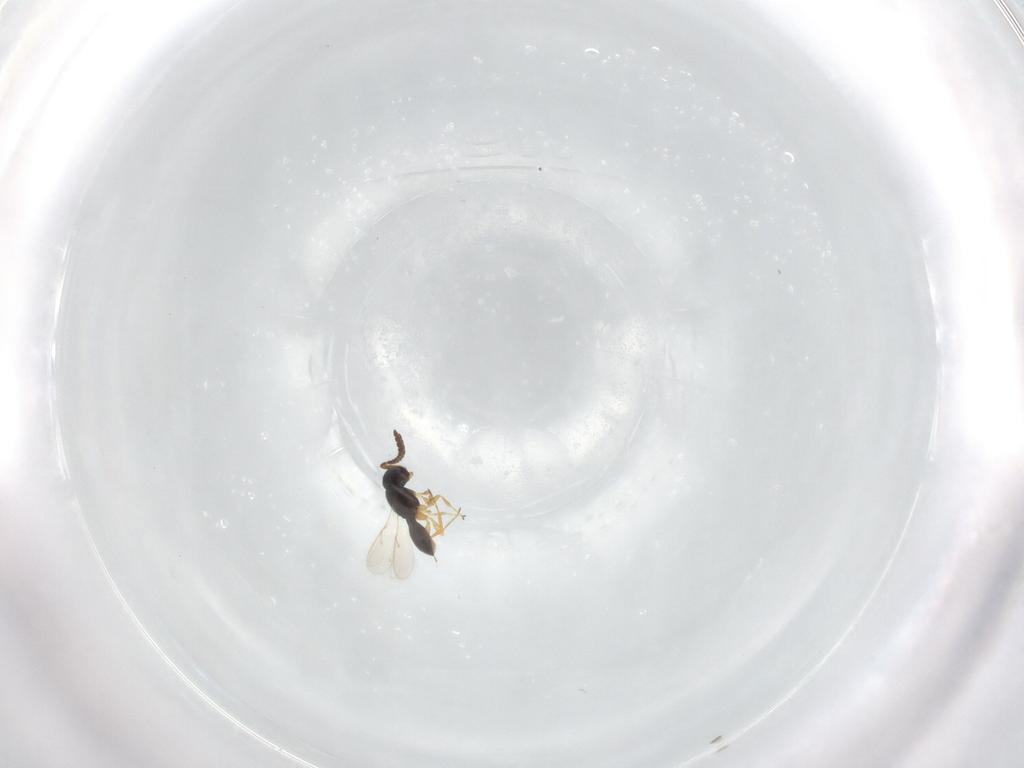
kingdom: Animalia
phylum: Arthropoda
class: Insecta
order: Hymenoptera
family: Scelionidae
